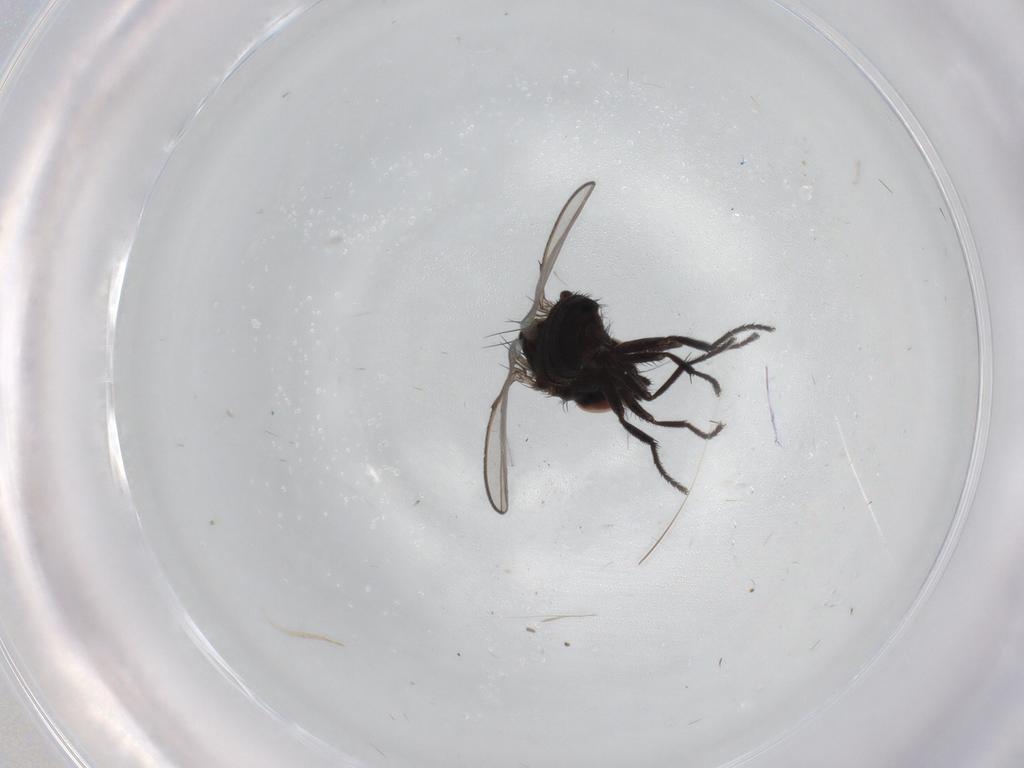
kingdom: Animalia
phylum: Arthropoda
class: Insecta
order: Diptera
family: Milichiidae
